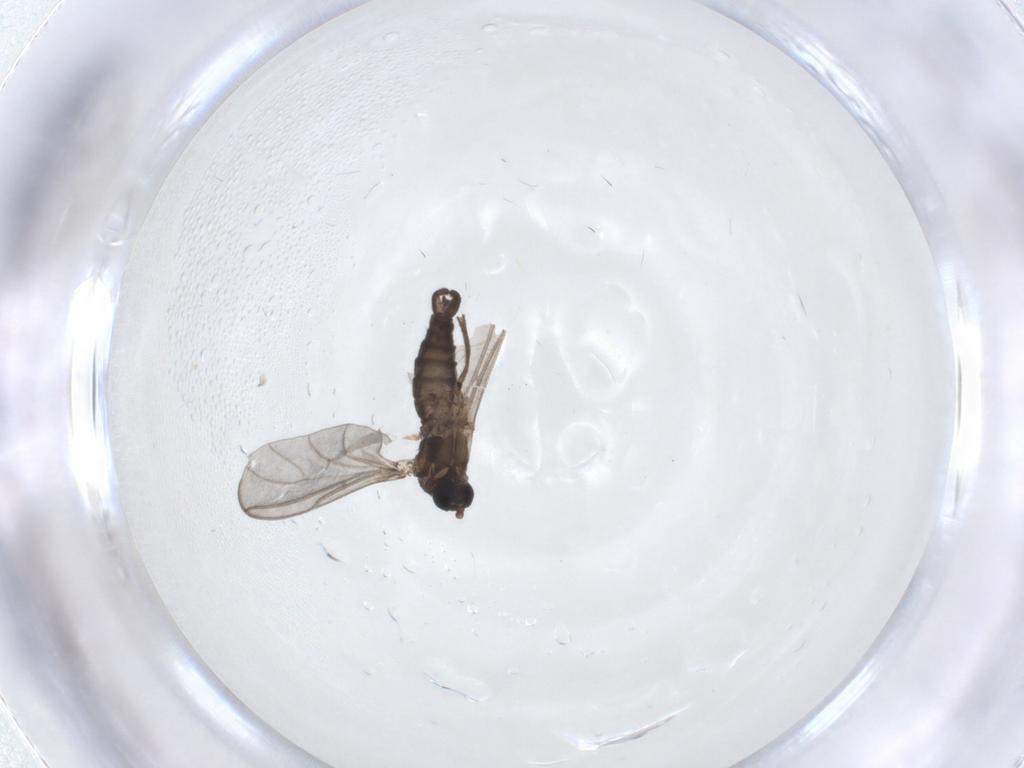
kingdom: Animalia
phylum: Arthropoda
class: Insecta
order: Diptera
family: Sciaridae
